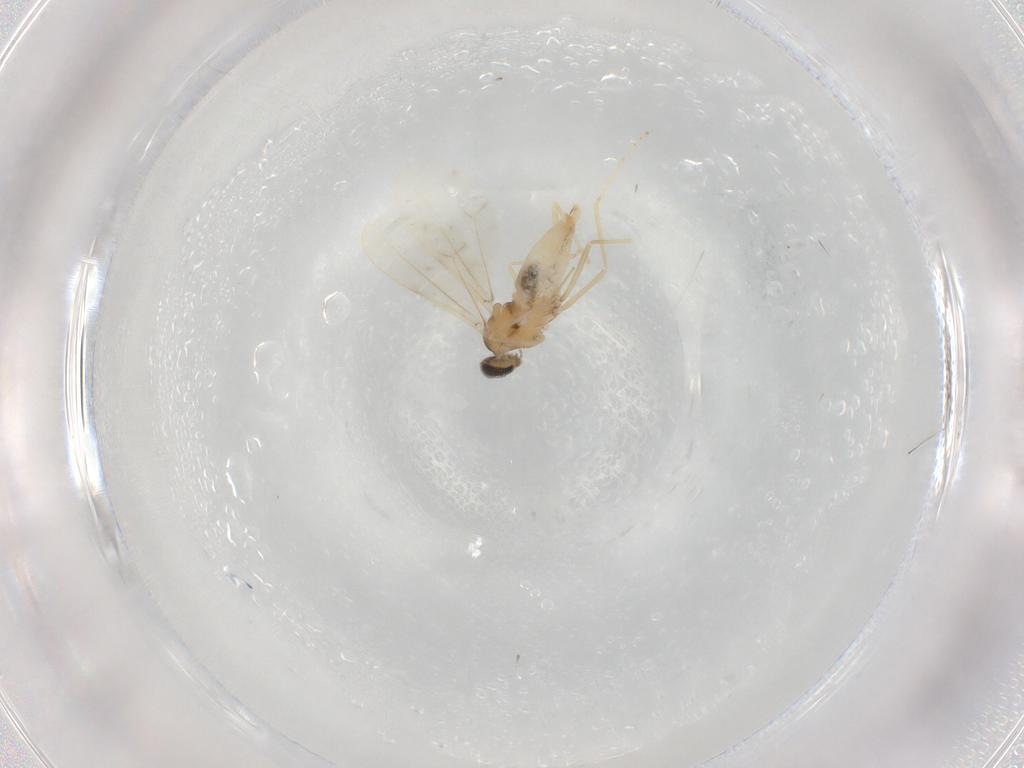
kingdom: Animalia
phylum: Arthropoda
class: Insecta
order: Diptera
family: Cecidomyiidae
